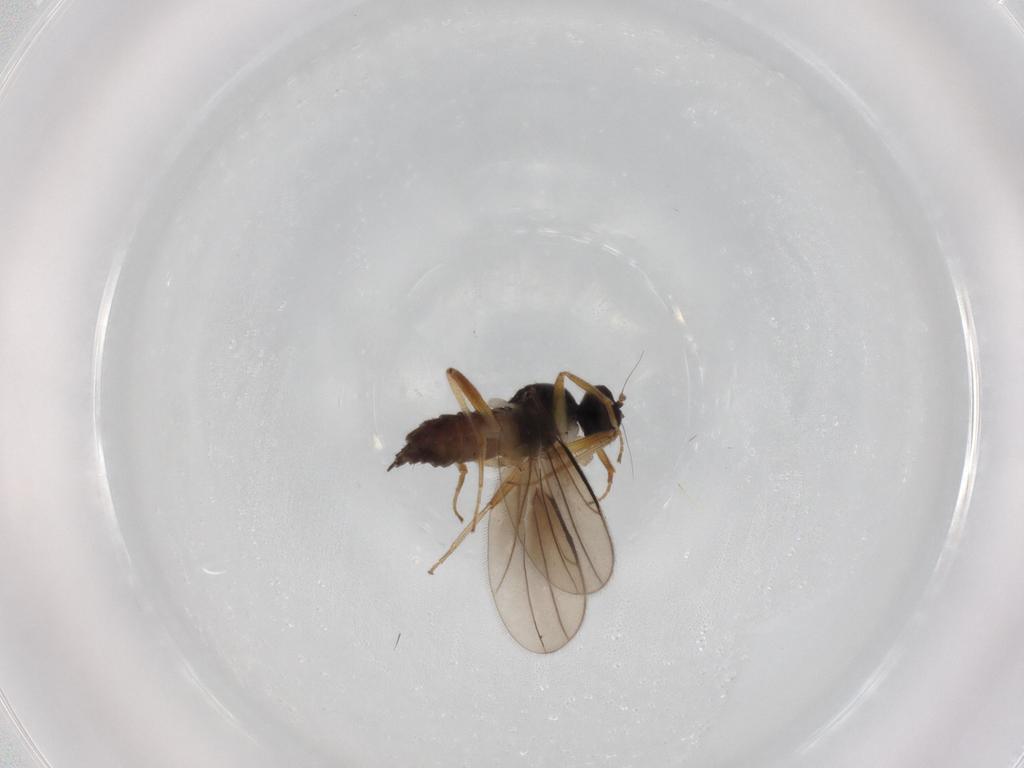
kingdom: Animalia
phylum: Arthropoda
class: Insecta
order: Diptera
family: Hybotidae
